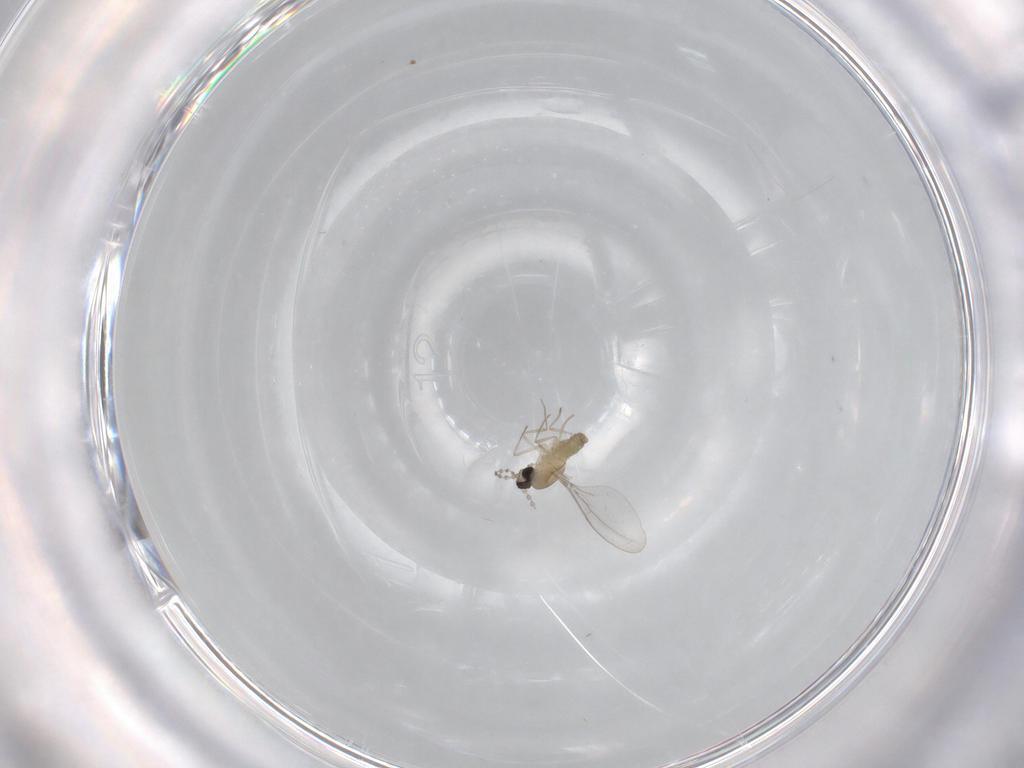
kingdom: Animalia
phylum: Arthropoda
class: Insecta
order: Diptera
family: Cecidomyiidae
